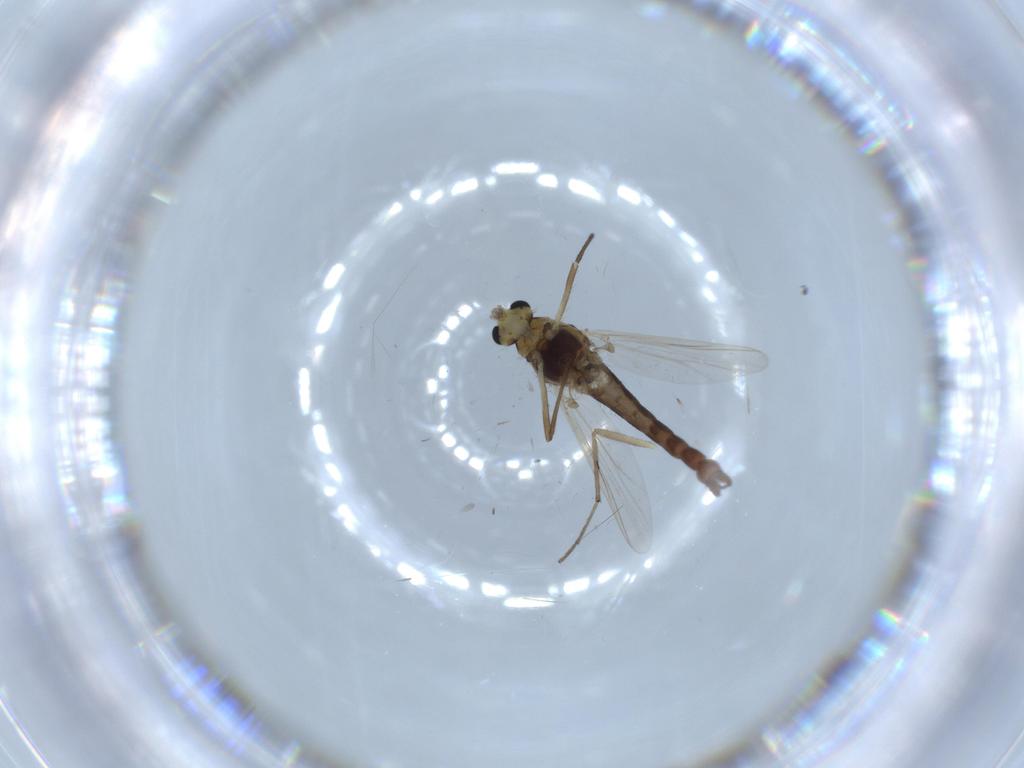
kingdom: Animalia
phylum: Arthropoda
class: Insecta
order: Diptera
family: Chironomidae
